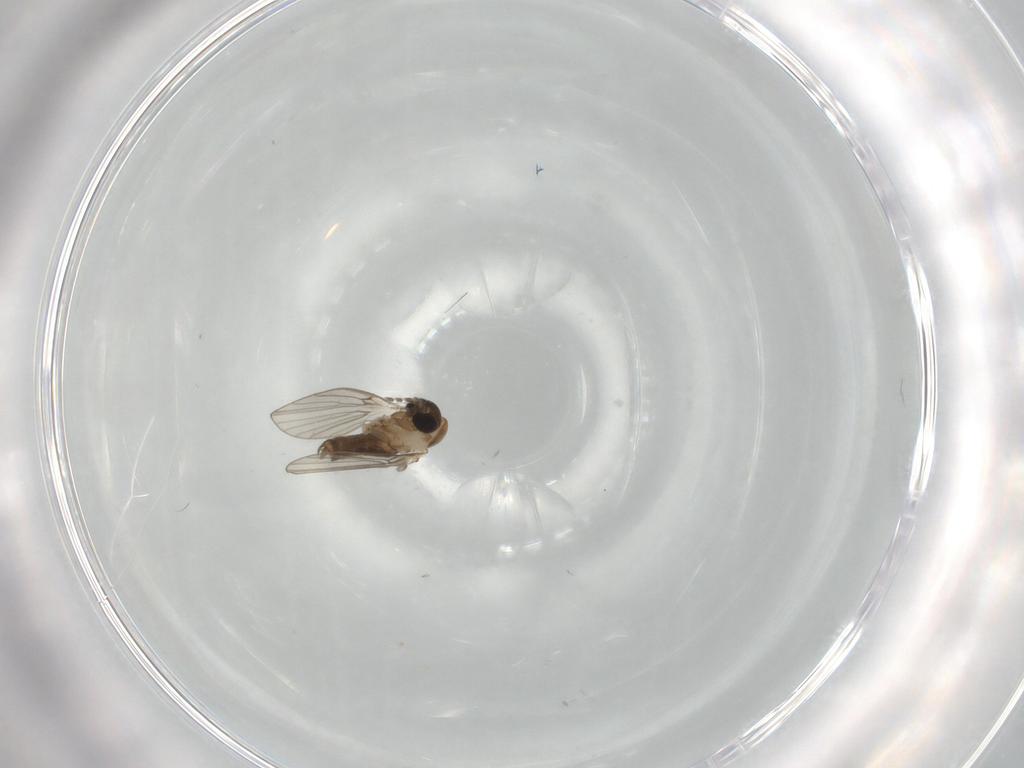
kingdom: Animalia
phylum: Arthropoda
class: Insecta
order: Diptera
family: Psychodidae
